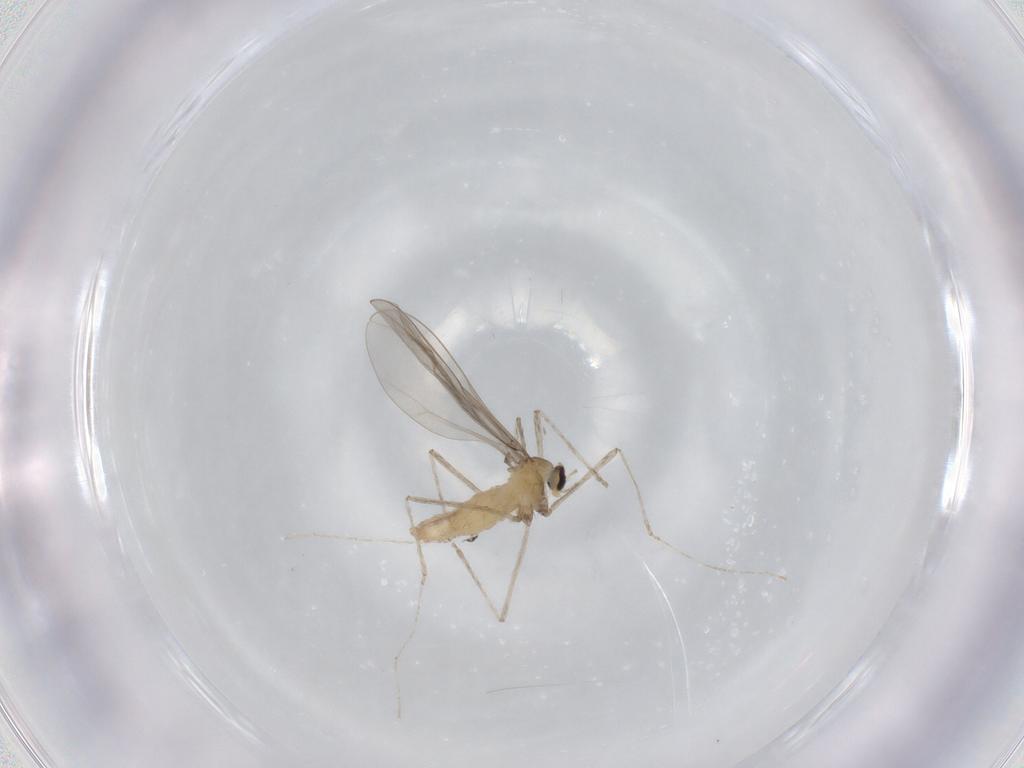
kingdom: Animalia
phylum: Arthropoda
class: Insecta
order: Diptera
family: Cecidomyiidae
